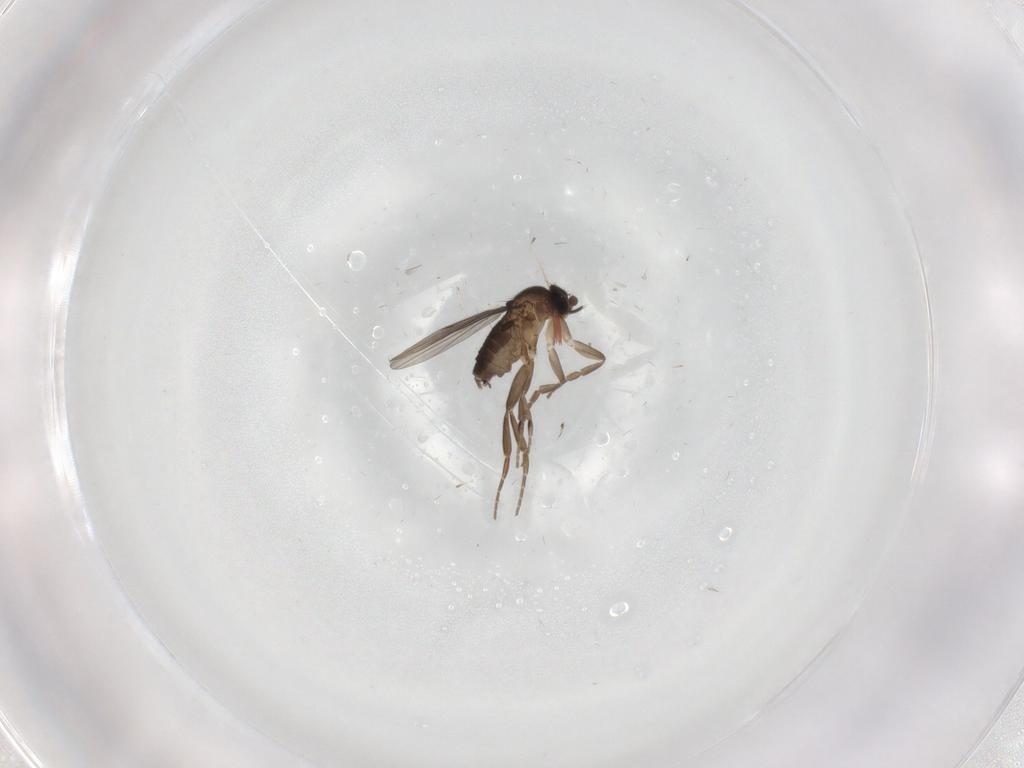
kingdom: Animalia
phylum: Arthropoda
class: Insecta
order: Diptera
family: Phoridae
